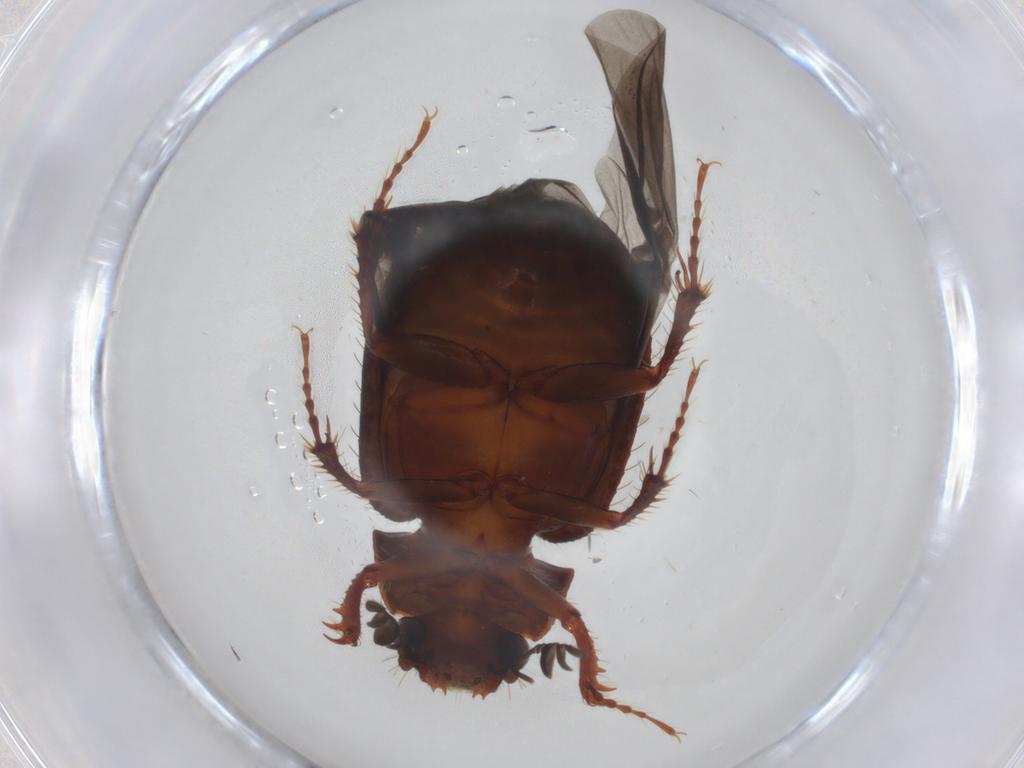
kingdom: Animalia
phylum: Arthropoda
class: Insecta
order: Coleoptera
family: Hybosoridae
